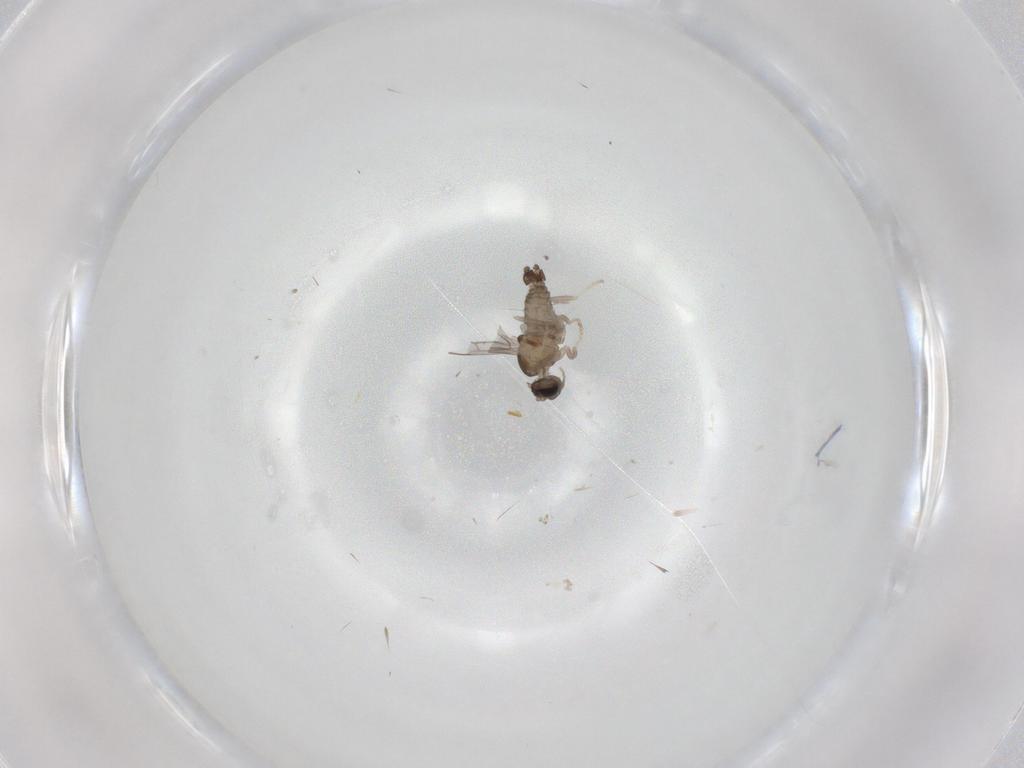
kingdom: Animalia
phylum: Arthropoda
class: Insecta
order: Diptera
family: Cecidomyiidae
